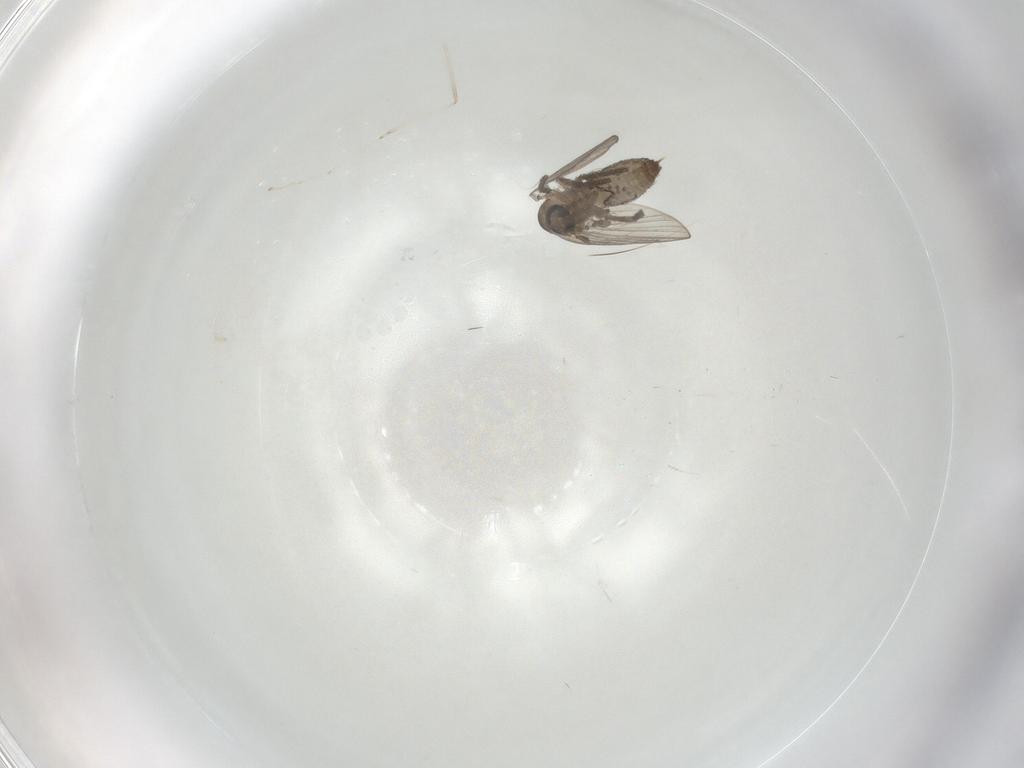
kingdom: Animalia
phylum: Arthropoda
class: Insecta
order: Diptera
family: Psychodidae
